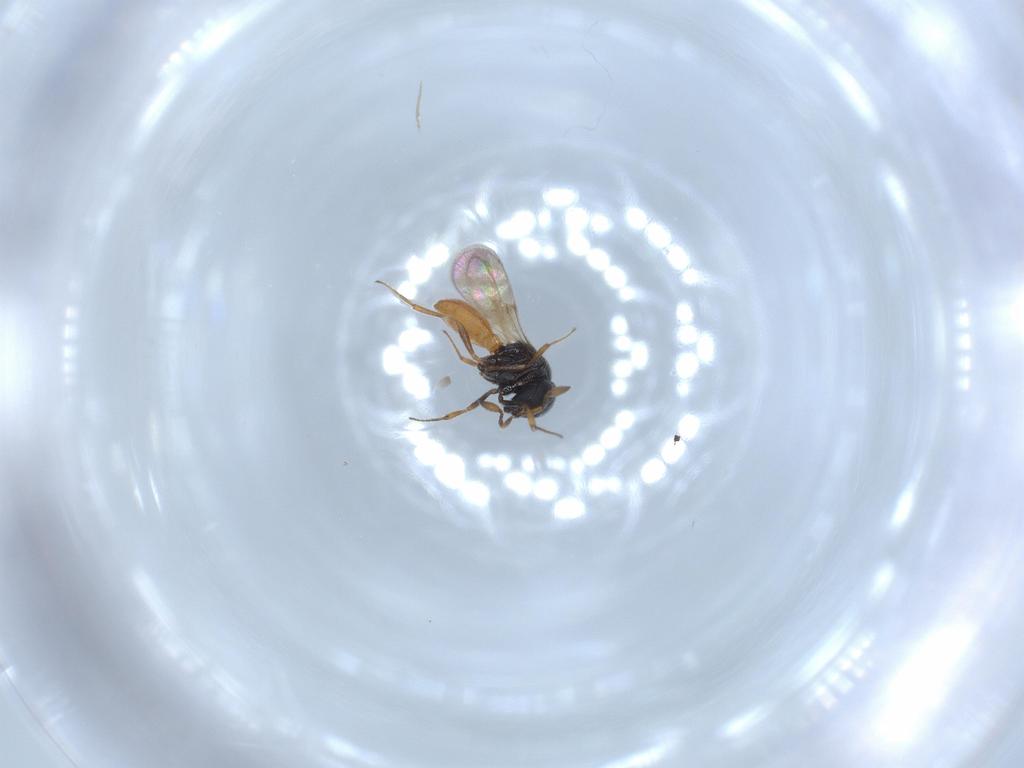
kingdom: Animalia
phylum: Arthropoda
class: Insecta
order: Hymenoptera
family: Scelionidae
